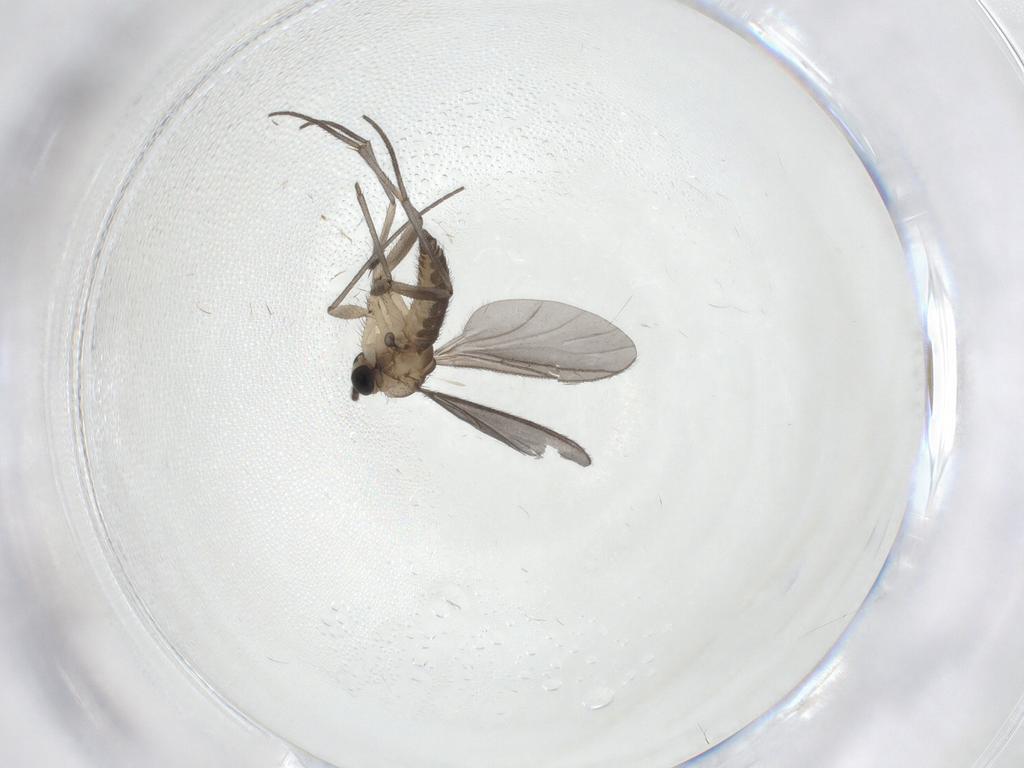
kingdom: Animalia
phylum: Arthropoda
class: Insecta
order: Diptera
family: Sciaridae
